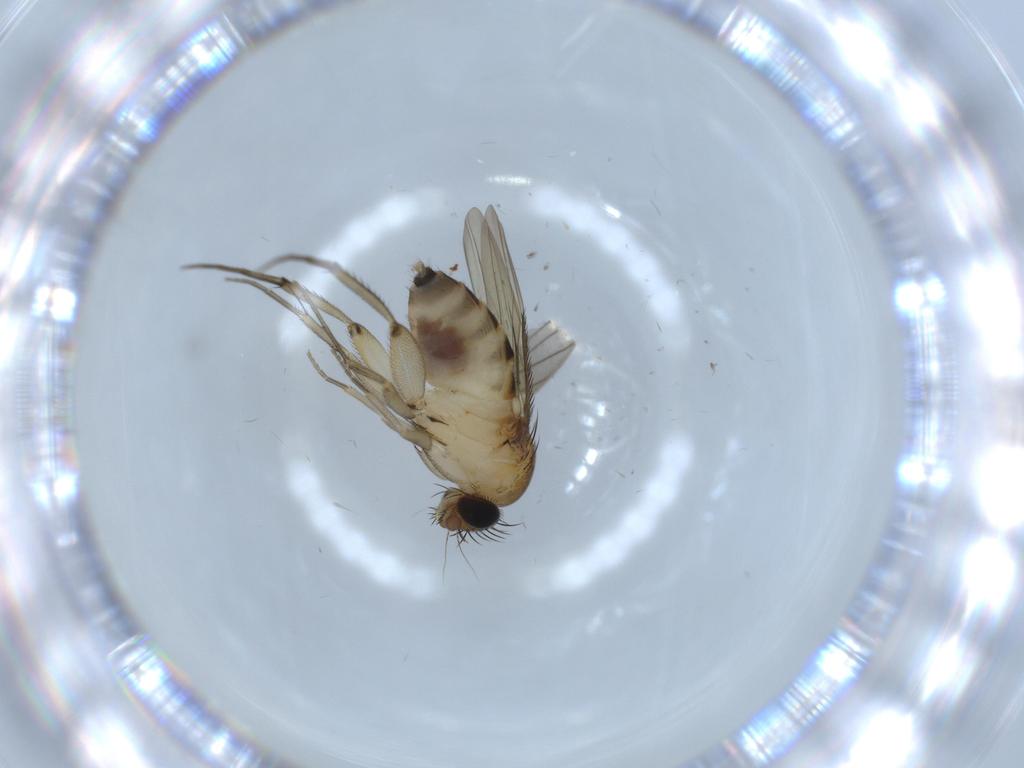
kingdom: Animalia
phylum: Arthropoda
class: Insecta
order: Diptera
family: Phoridae
